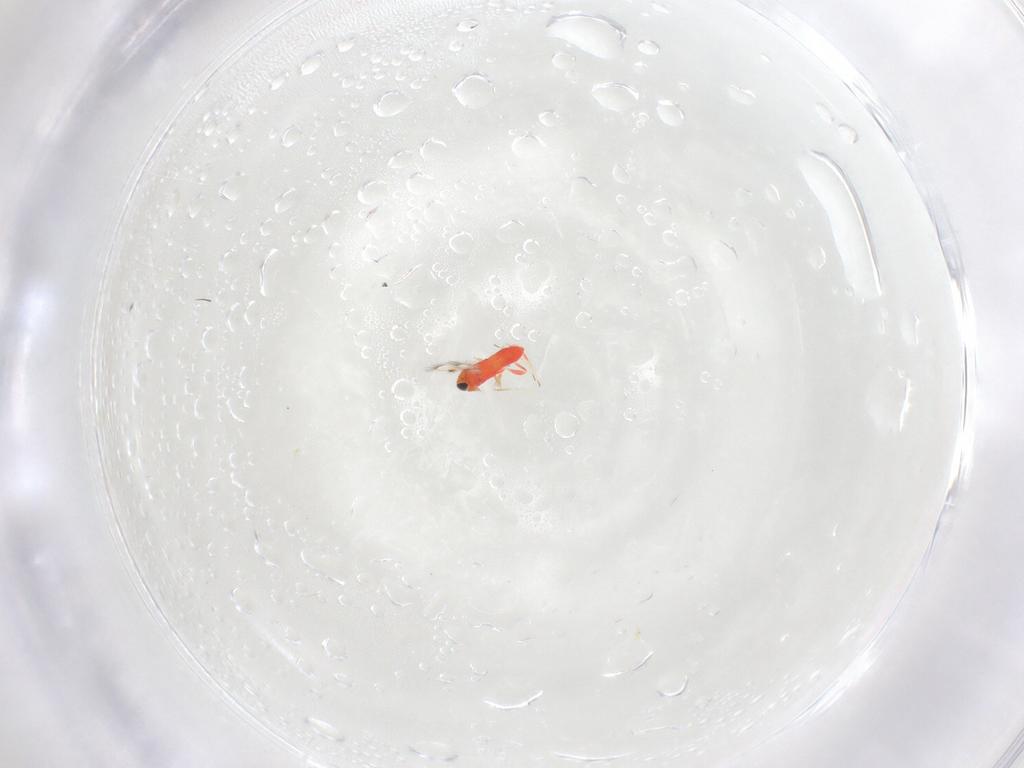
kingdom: Animalia
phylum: Arthropoda
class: Insecta
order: Hymenoptera
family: Trichogrammatidae
